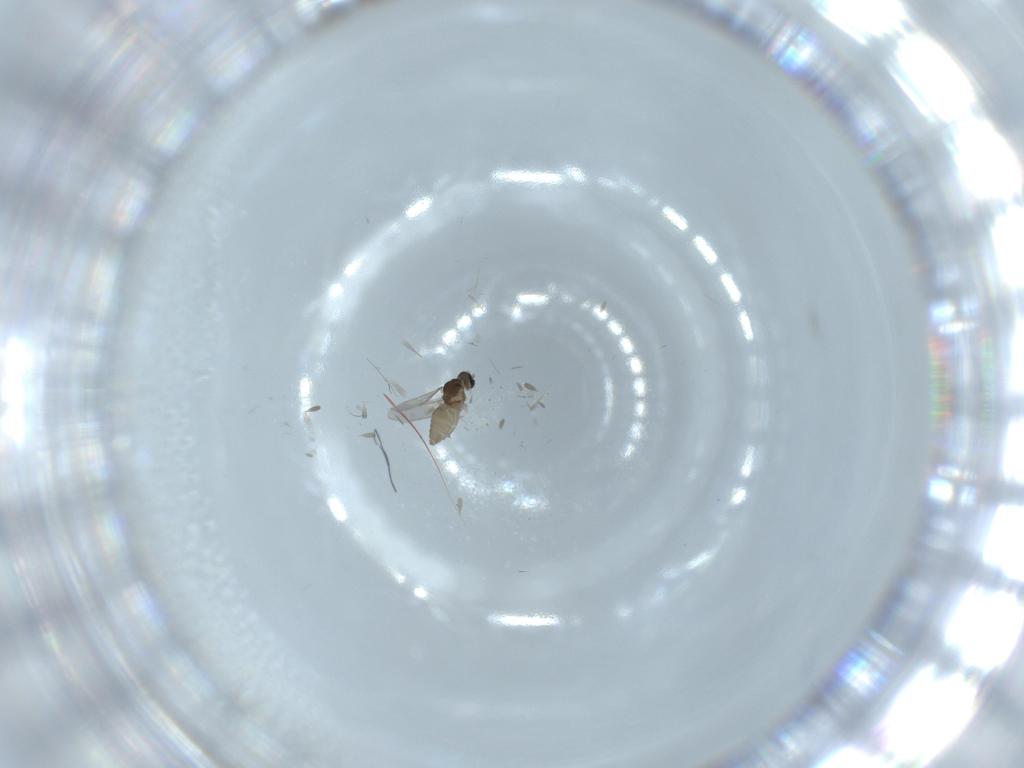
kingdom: Animalia
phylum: Arthropoda
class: Insecta
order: Diptera
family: Cecidomyiidae
